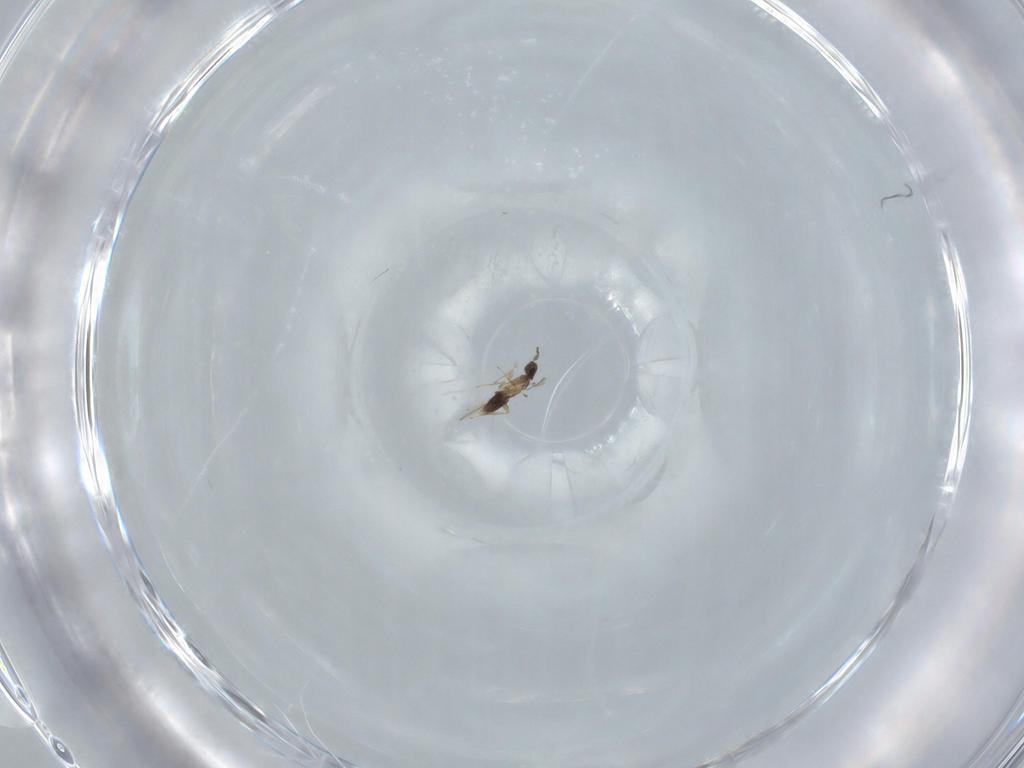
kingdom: Animalia
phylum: Arthropoda
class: Insecta
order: Hymenoptera
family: Mymaridae
